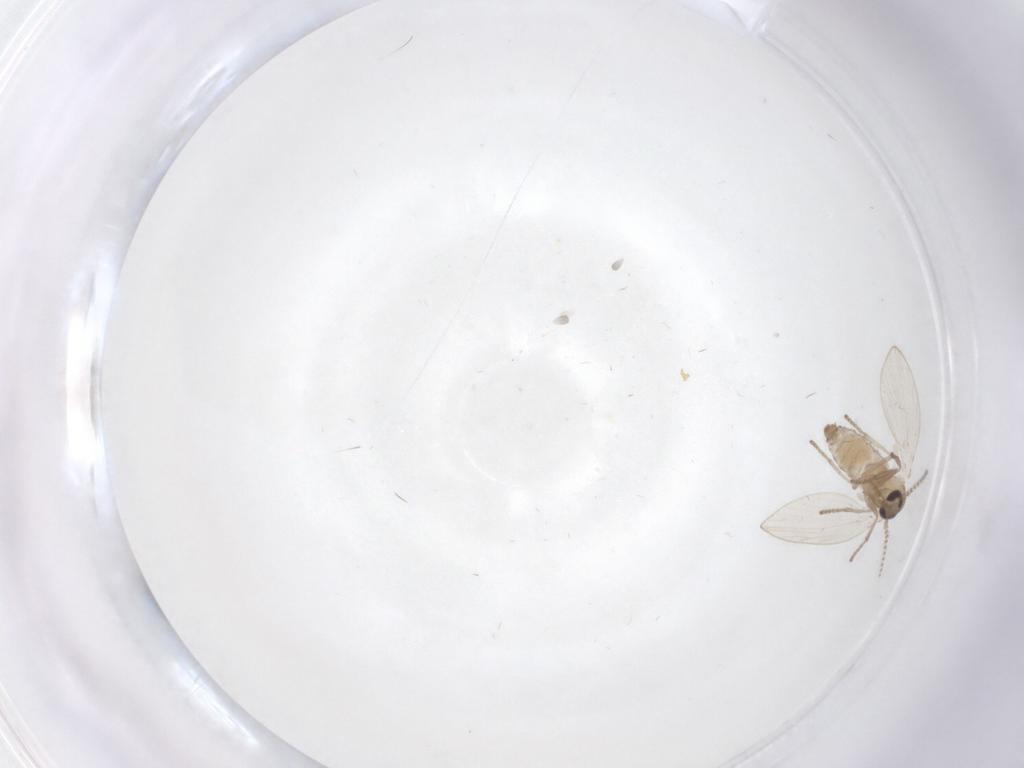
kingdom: Animalia
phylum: Arthropoda
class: Insecta
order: Diptera
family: Psychodidae
